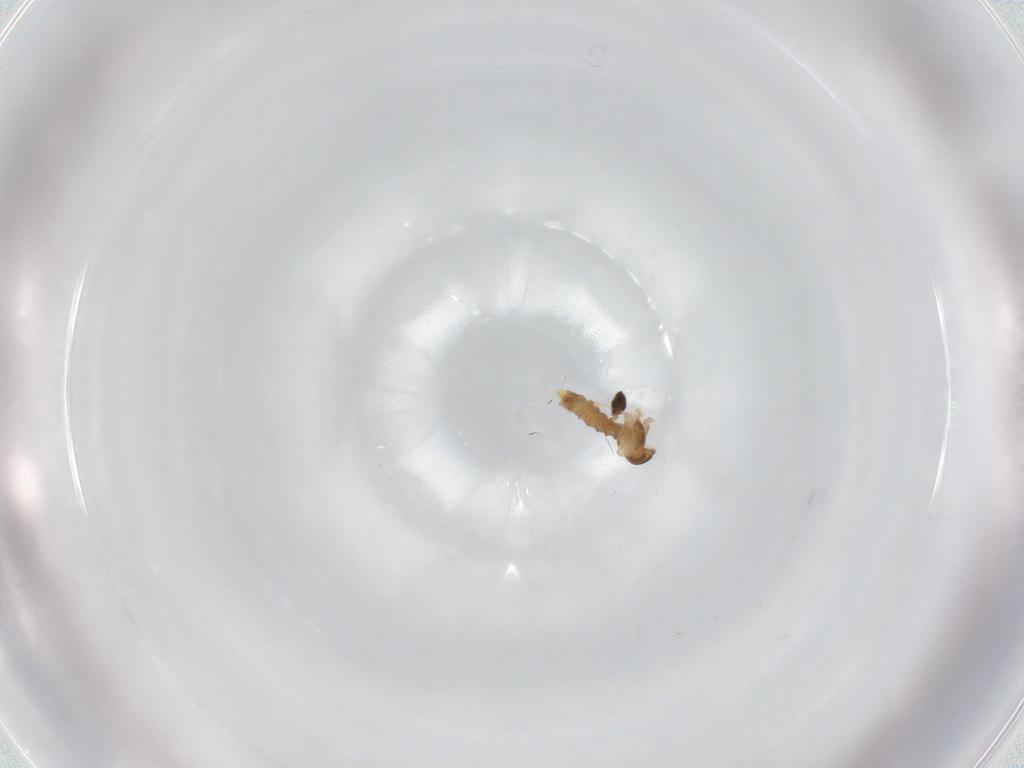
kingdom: Animalia
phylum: Arthropoda
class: Insecta
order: Diptera
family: Cecidomyiidae
